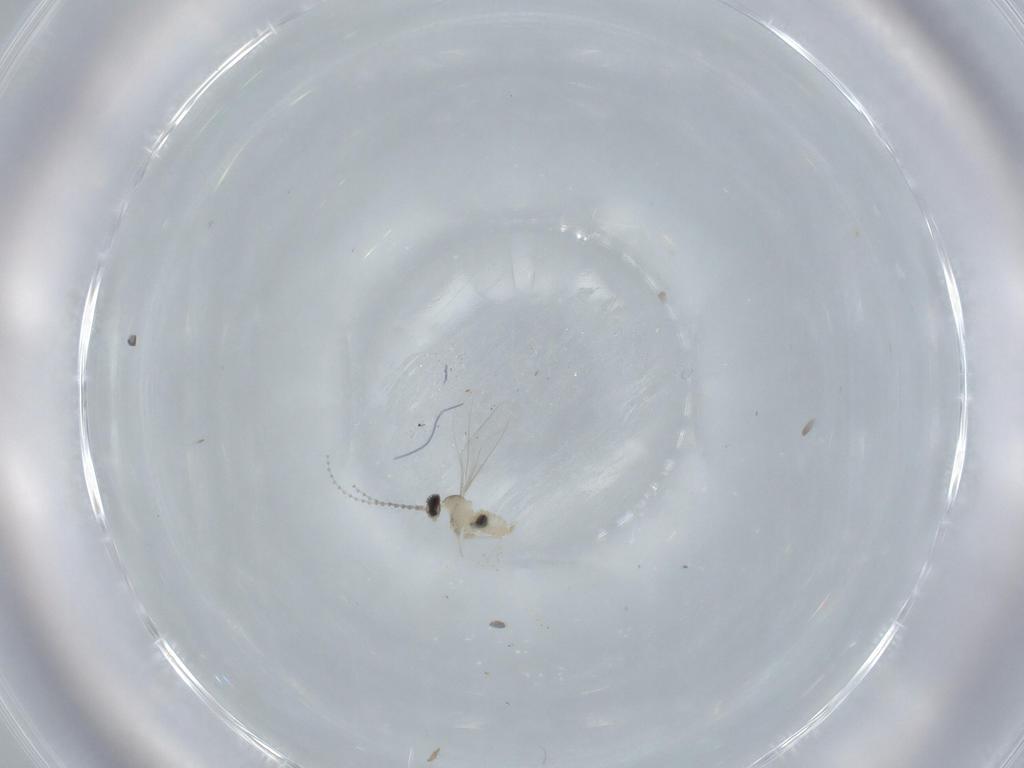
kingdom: Animalia
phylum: Arthropoda
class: Insecta
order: Diptera
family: Cecidomyiidae
